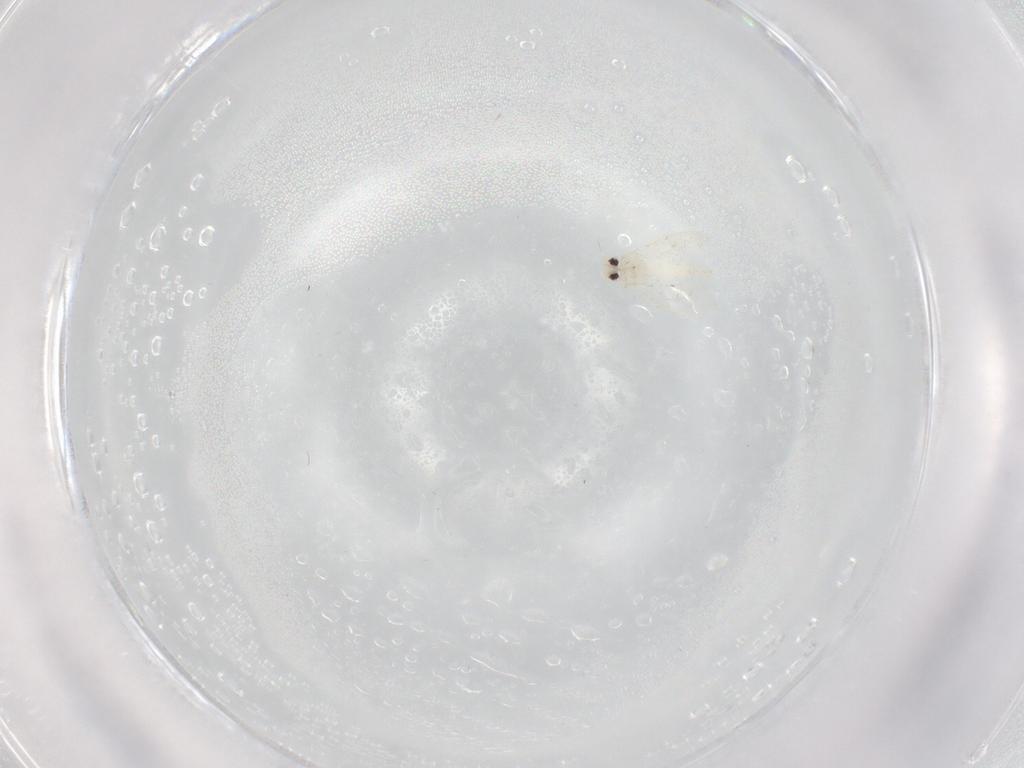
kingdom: Animalia
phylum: Arthropoda
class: Insecta
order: Hemiptera
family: Aleyrodidae
